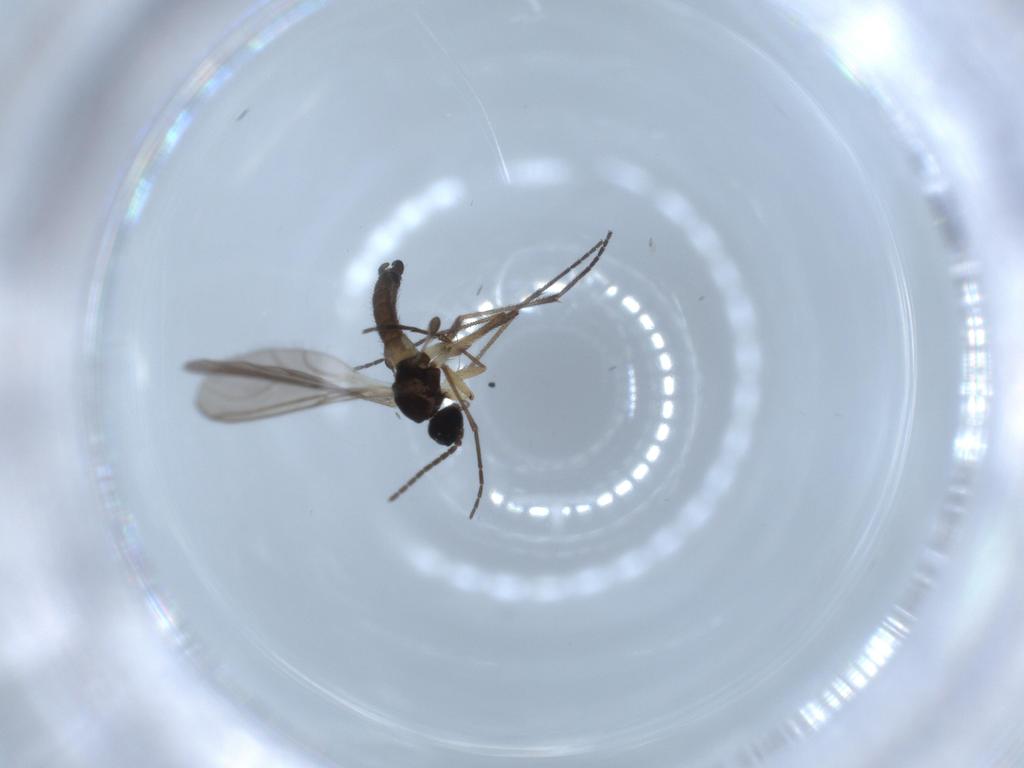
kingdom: Animalia
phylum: Arthropoda
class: Insecta
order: Diptera
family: Sciaridae
